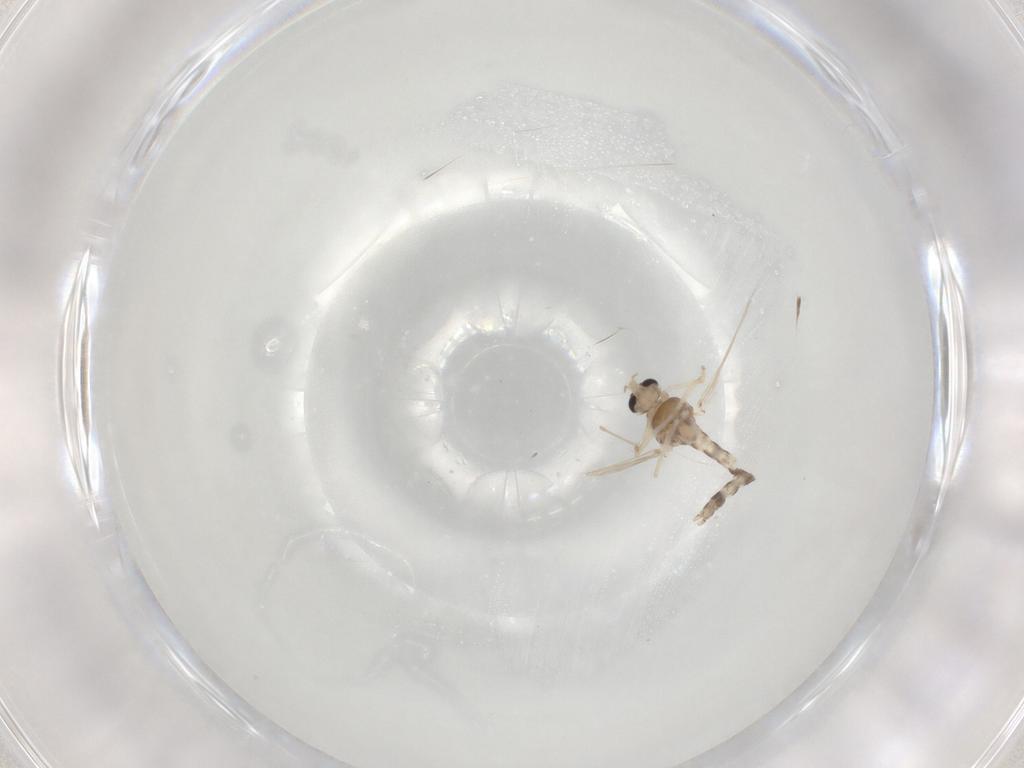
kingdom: Animalia
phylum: Arthropoda
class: Insecta
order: Diptera
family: Chironomidae
